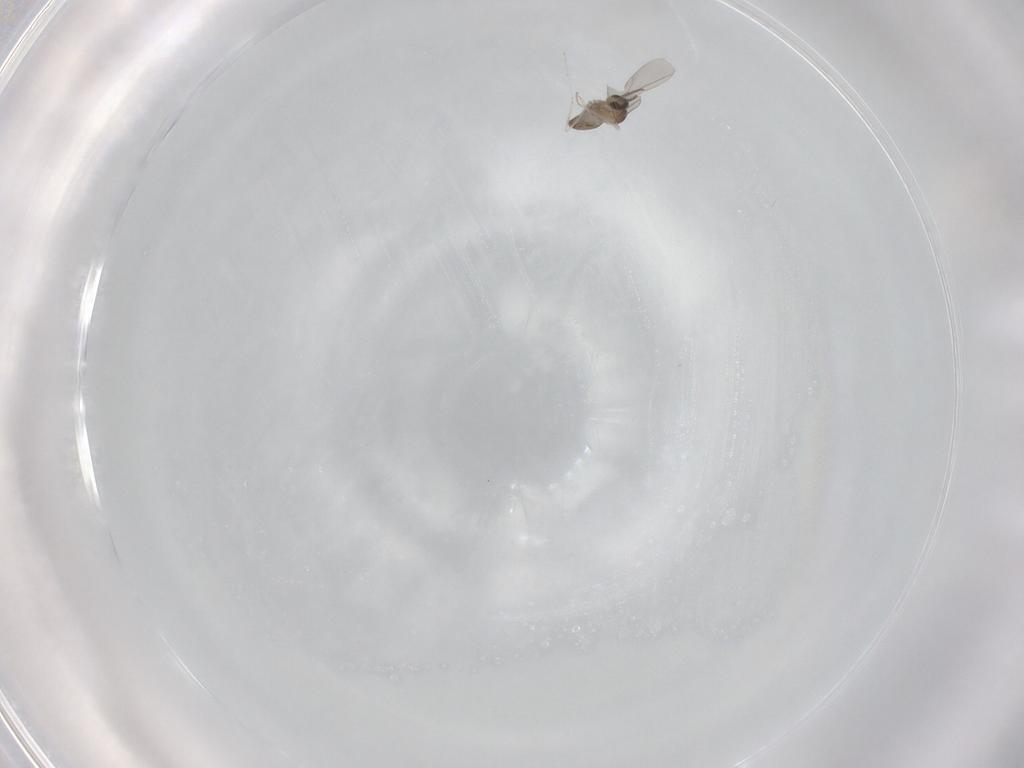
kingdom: Animalia
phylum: Arthropoda
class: Insecta
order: Diptera
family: Cecidomyiidae
